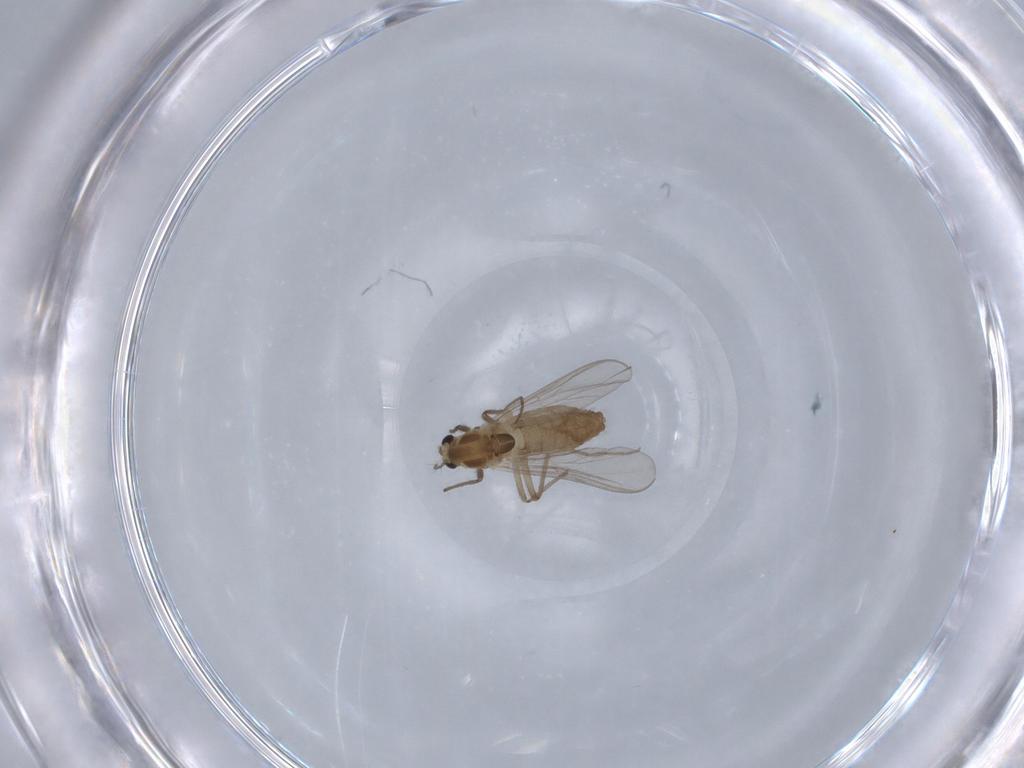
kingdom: Animalia
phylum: Arthropoda
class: Insecta
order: Diptera
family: Chironomidae
